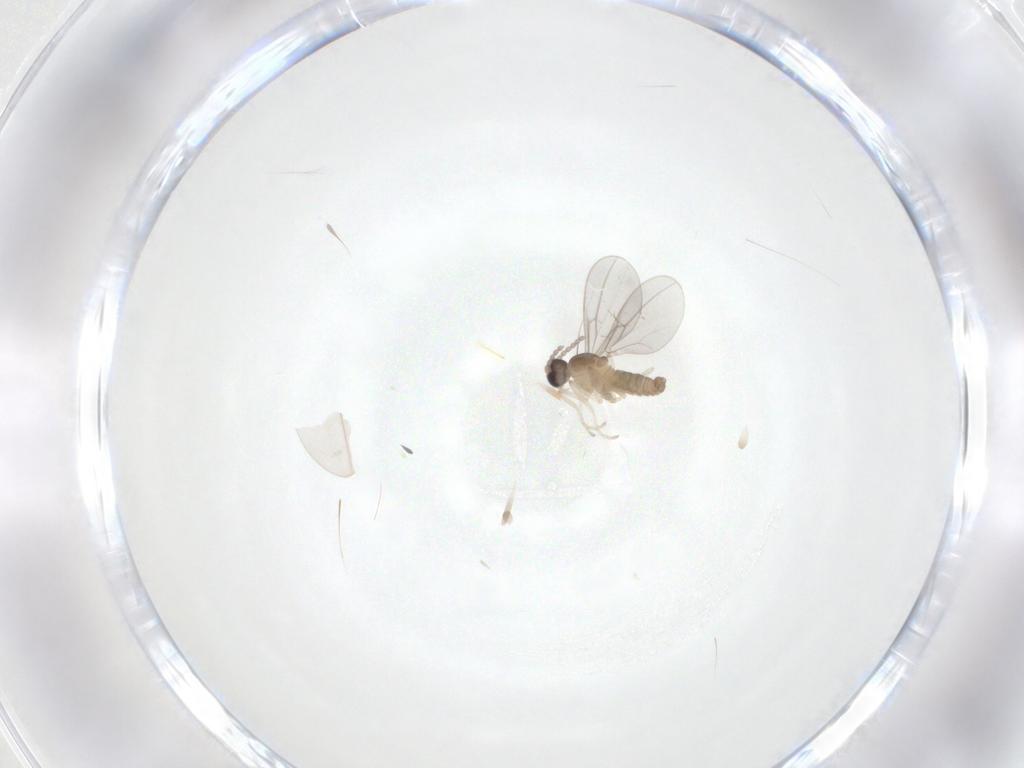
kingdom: Animalia
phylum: Arthropoda
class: Insecta
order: Diptera
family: Cecidomyiidae
